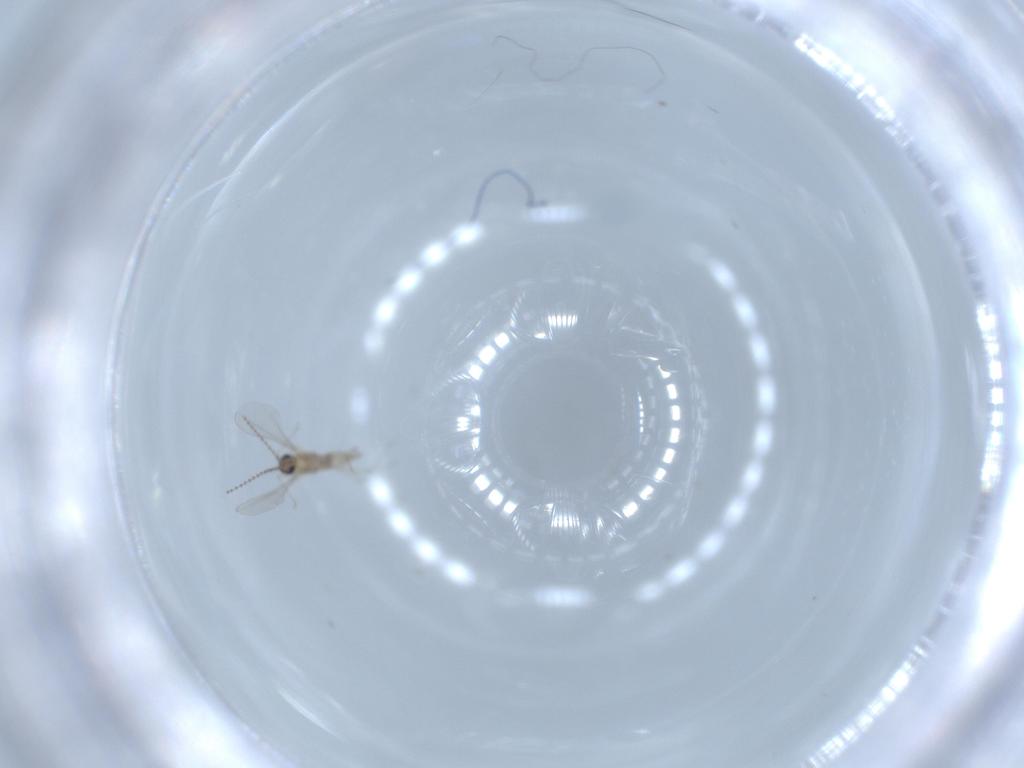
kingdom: Animalia
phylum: Arthropoda
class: Insecta
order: Diptera
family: Cecidomyiidae
